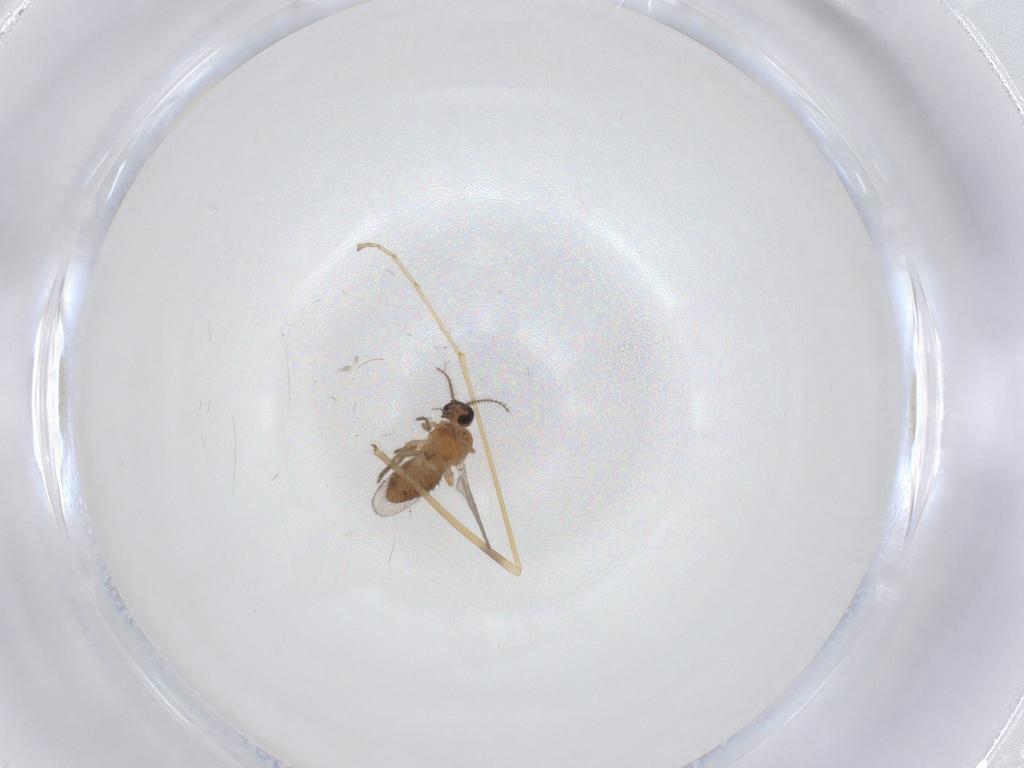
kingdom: Animalia
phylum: Arthropoda
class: Insecta
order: Diptera
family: Limoniidae
